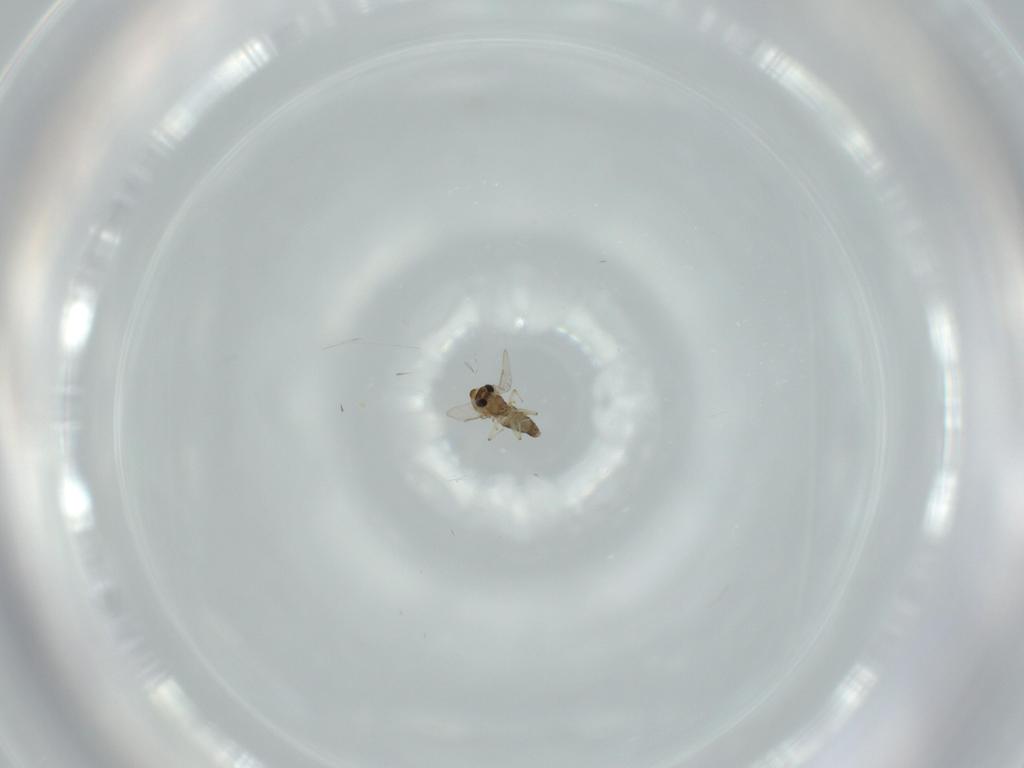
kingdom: Animalia
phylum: Arthropoda
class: Insecta
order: Diptera
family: Chironomidae
